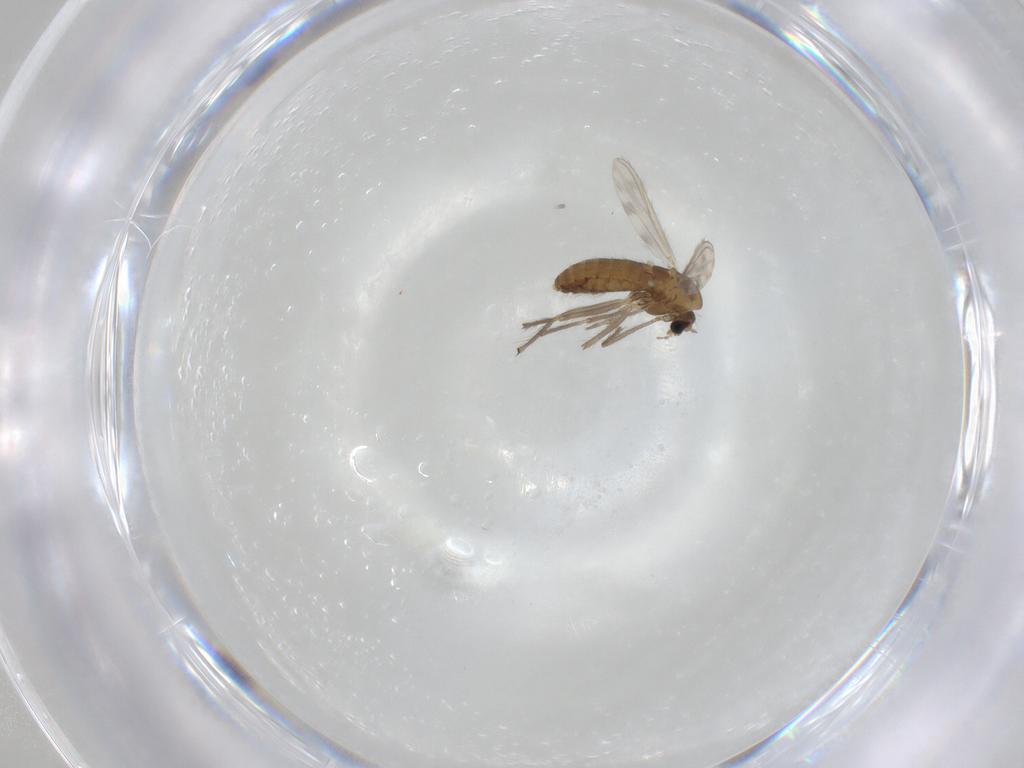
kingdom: Animalia
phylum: Arthropoda
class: Insecta
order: Diptera
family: Chironomidae
